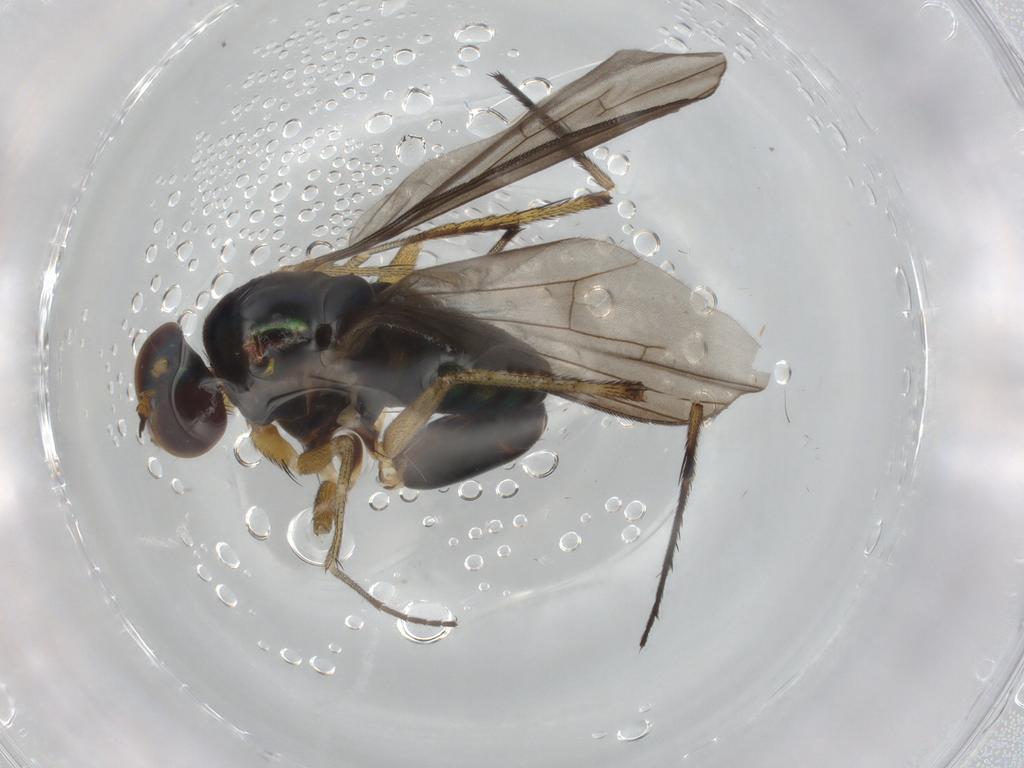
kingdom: Animalia
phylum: Arthropoda
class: Insecta
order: Diptera
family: Dolichopodidae
